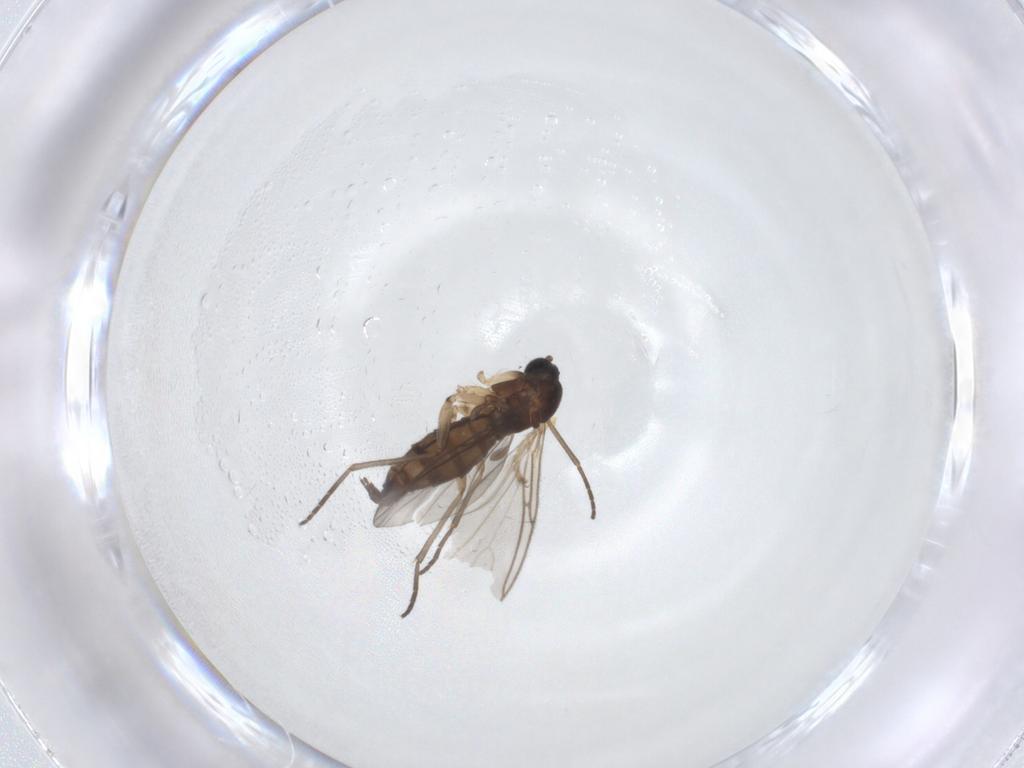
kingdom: Animalia
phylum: Arthropoda
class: Insecta
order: Diptera
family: Sciaridae
